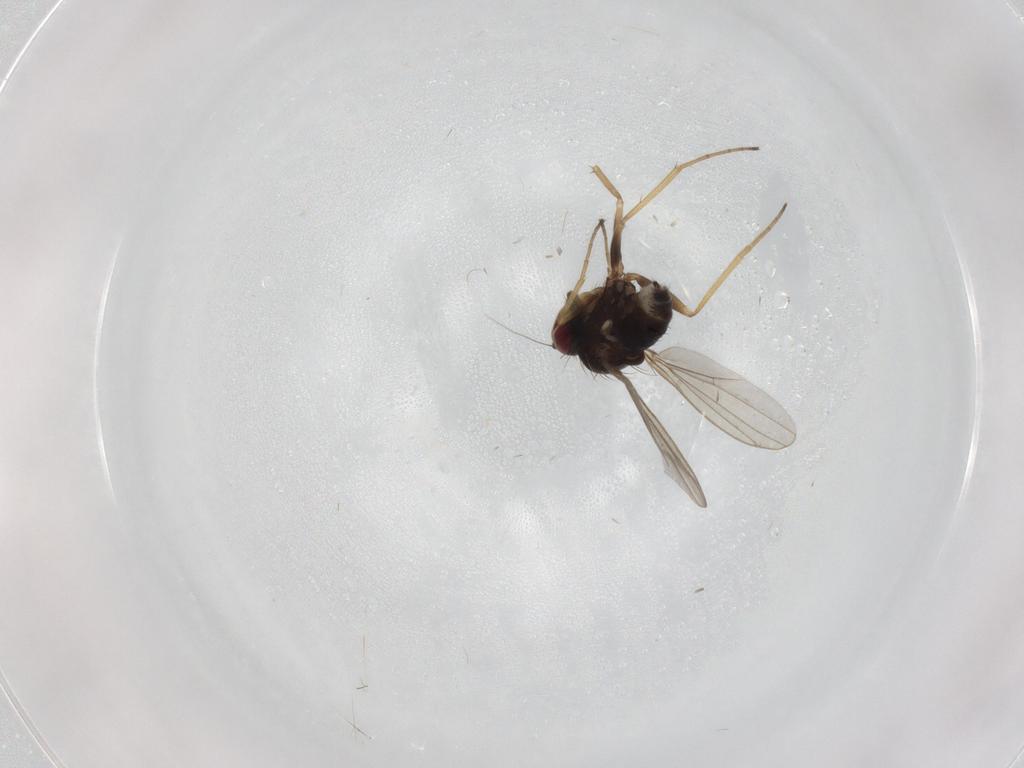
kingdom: Animalia
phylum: Arthropoda
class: Insecta
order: Diptera
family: Dolichopodidae
